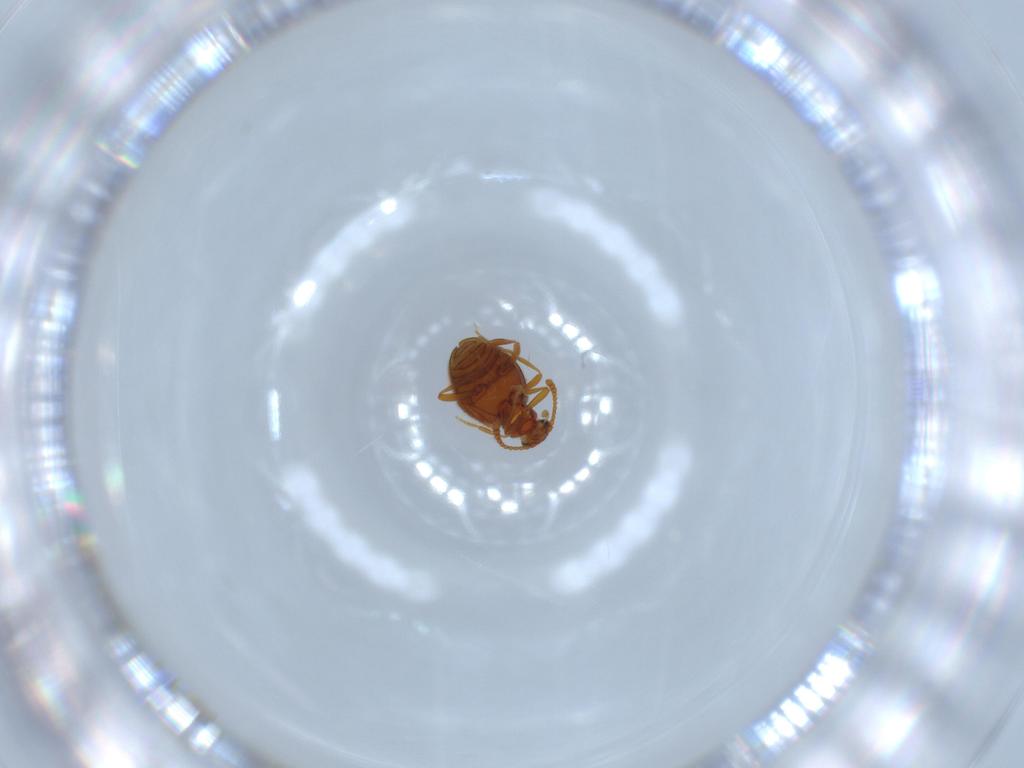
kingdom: Animalia
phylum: Arthropoda
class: Insecta
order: Coleoptera
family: Aderidae
